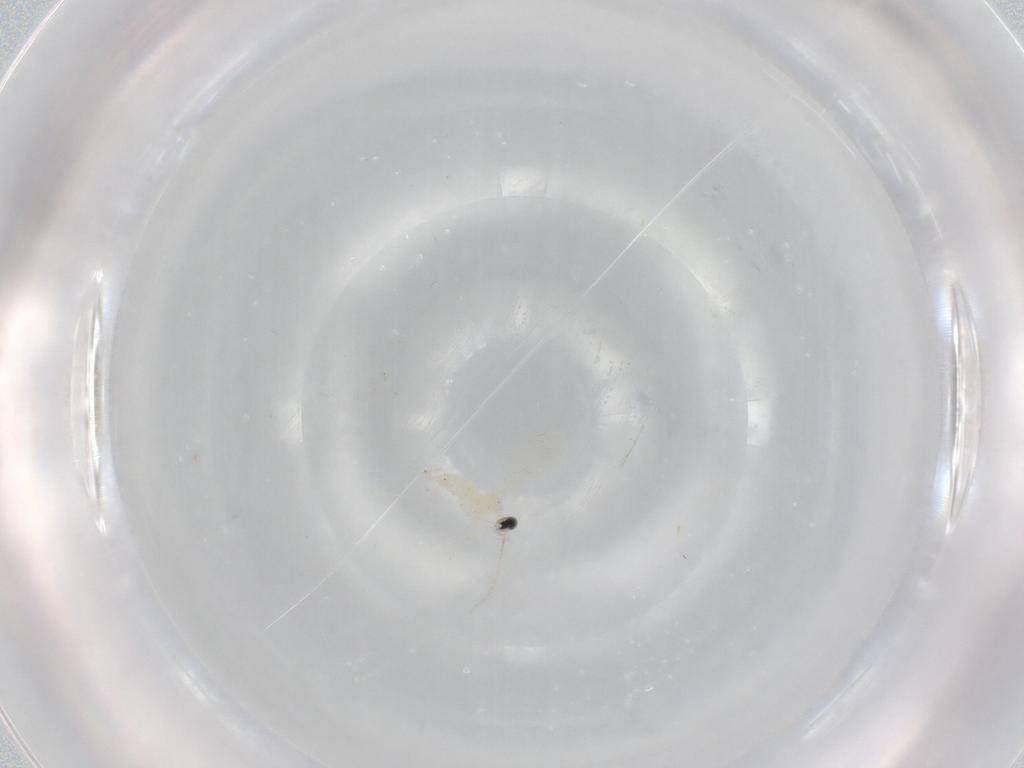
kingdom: Animalia
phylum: Arthropoda
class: Insecta
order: Diptera
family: Cecidomyiidae
